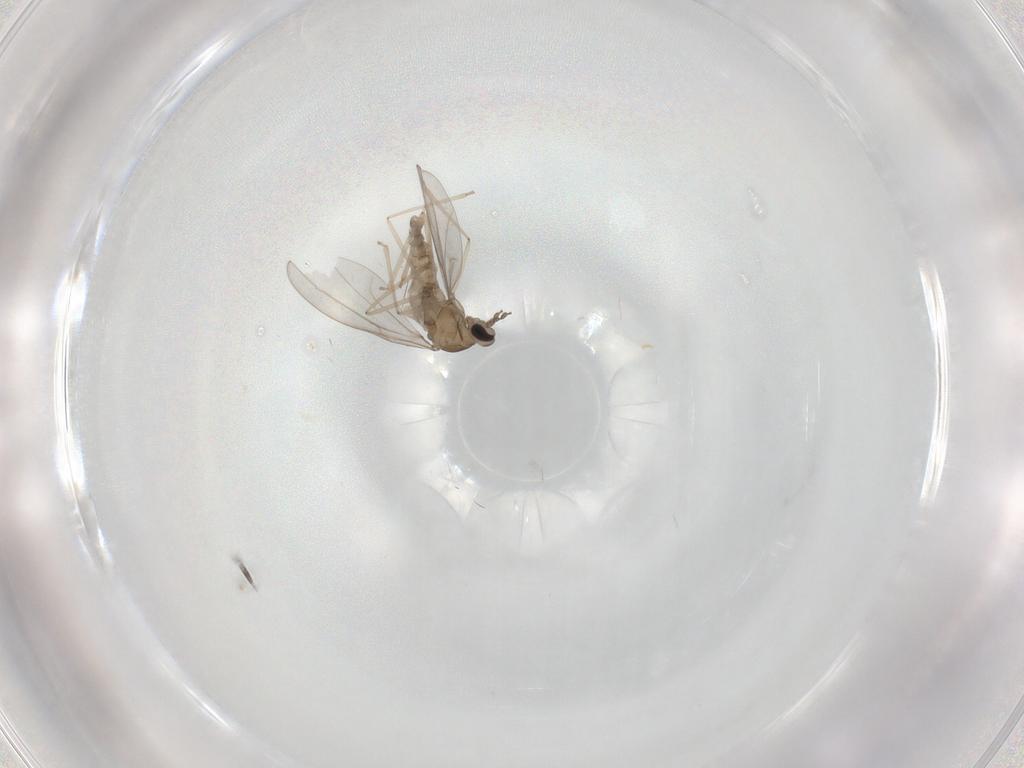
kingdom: Animalia
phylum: Arthropoda
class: Insecta
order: Diptera
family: Cecidomyiidae
